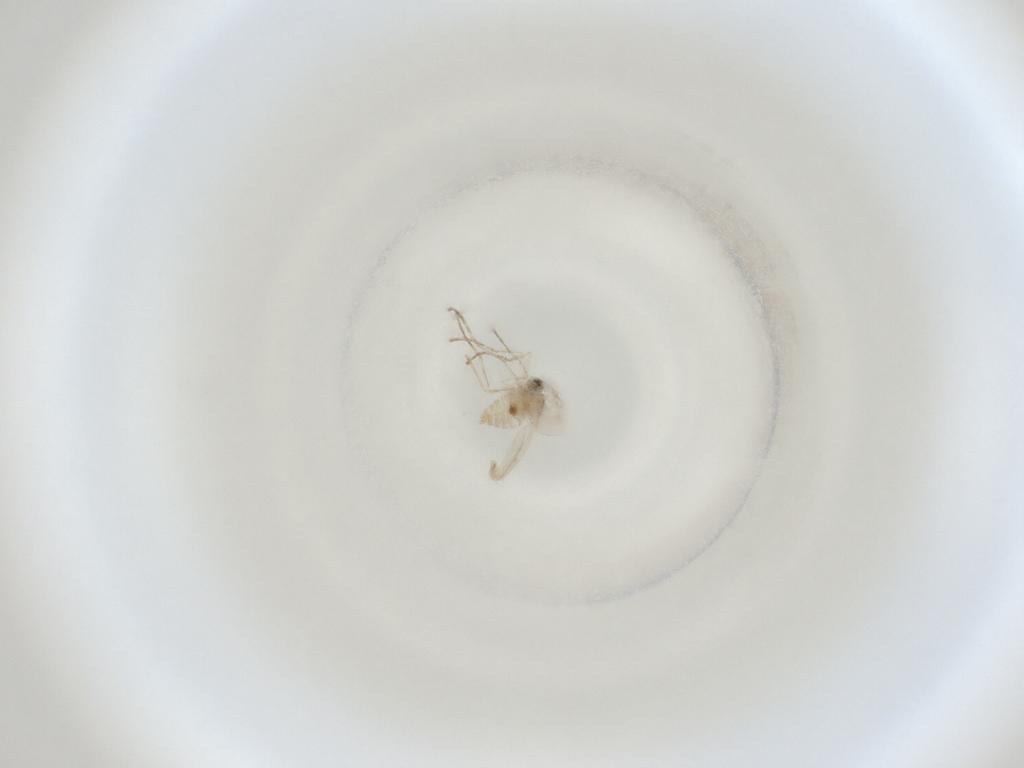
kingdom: Animalia
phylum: Arthropoda
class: Insecta
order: Diptera
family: Cecidomyiidae
